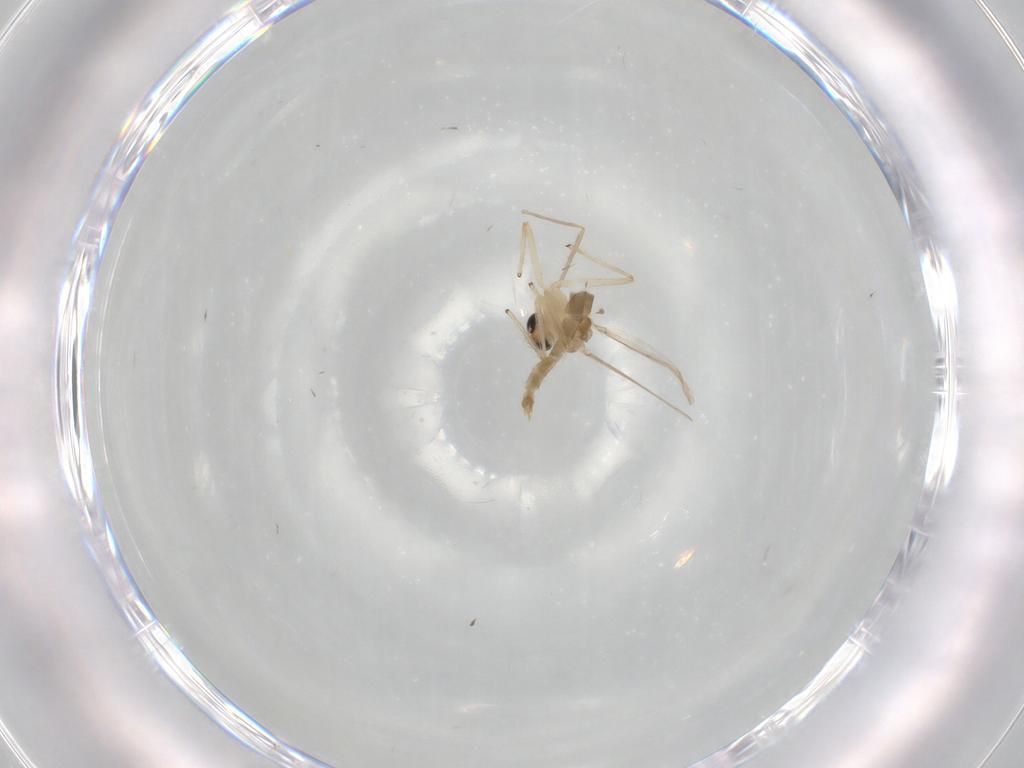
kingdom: Animalia
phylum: Arthropoda
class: Insecta
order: Diptera
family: Chironomidae
